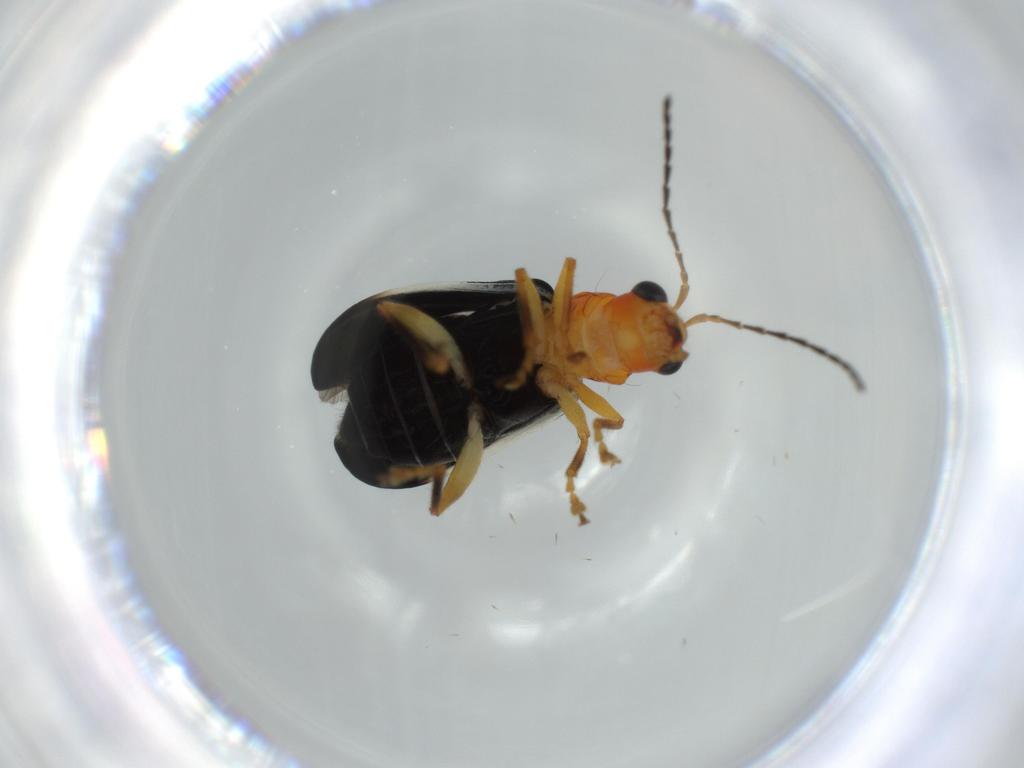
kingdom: Animalia
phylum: Arthropoda
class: Insecta
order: Coleoptera
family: Chrysomelidae
